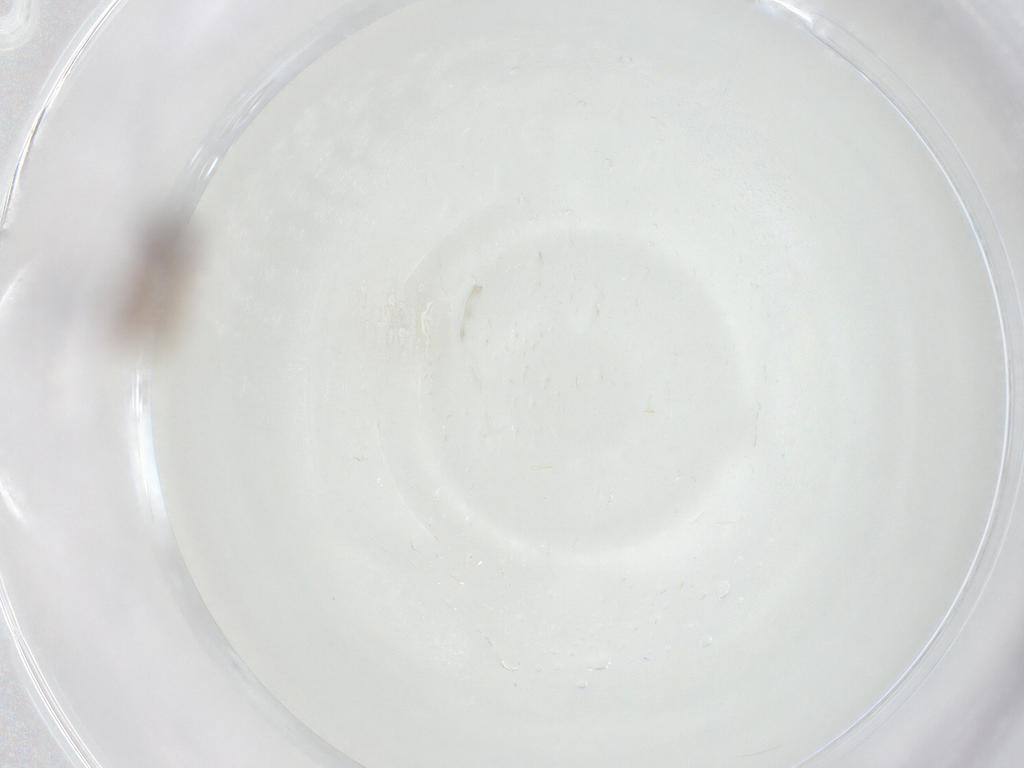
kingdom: Animalia
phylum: Arthropoda
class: Insecta
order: Diptera
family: Ceratopogonidae
